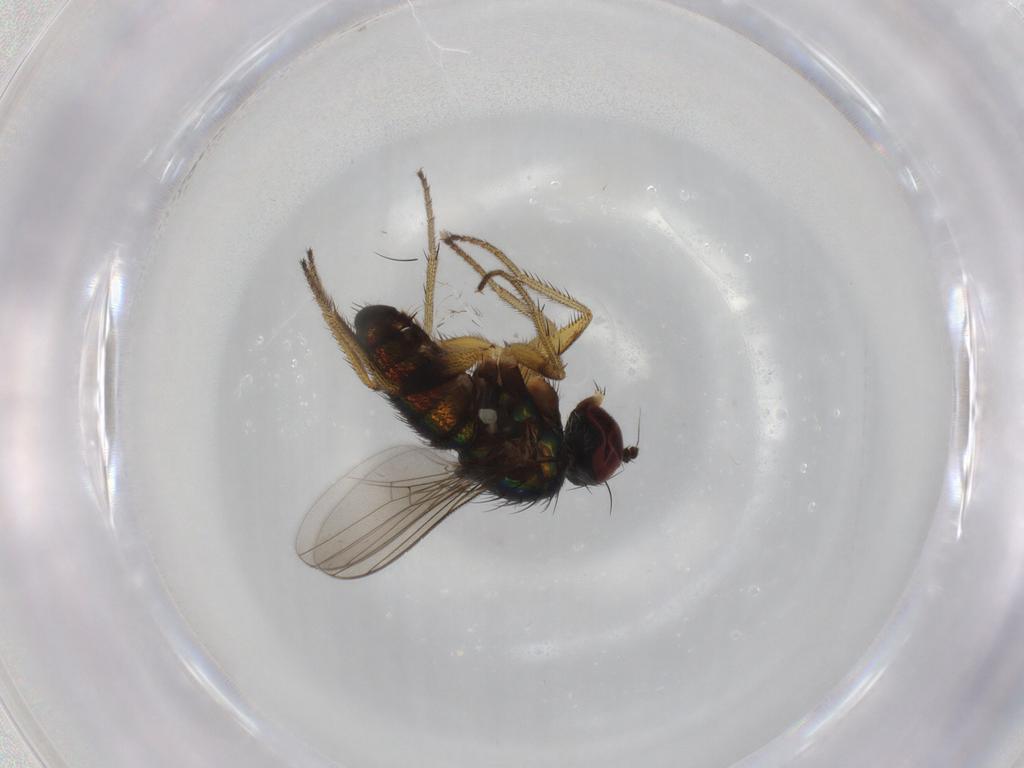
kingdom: Animalia
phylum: Arthropoda
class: Insecta
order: Diptera
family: Dolichopodidae
